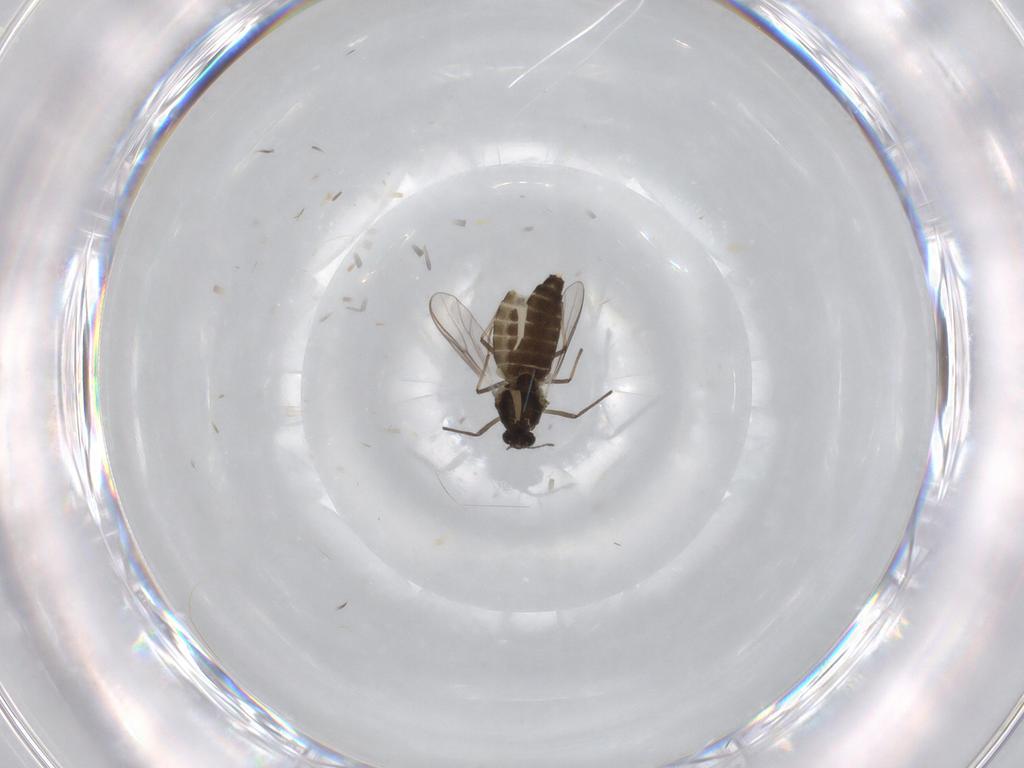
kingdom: Animalia
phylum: Arthropoda
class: Insecta
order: Diptera
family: Chironomidae
